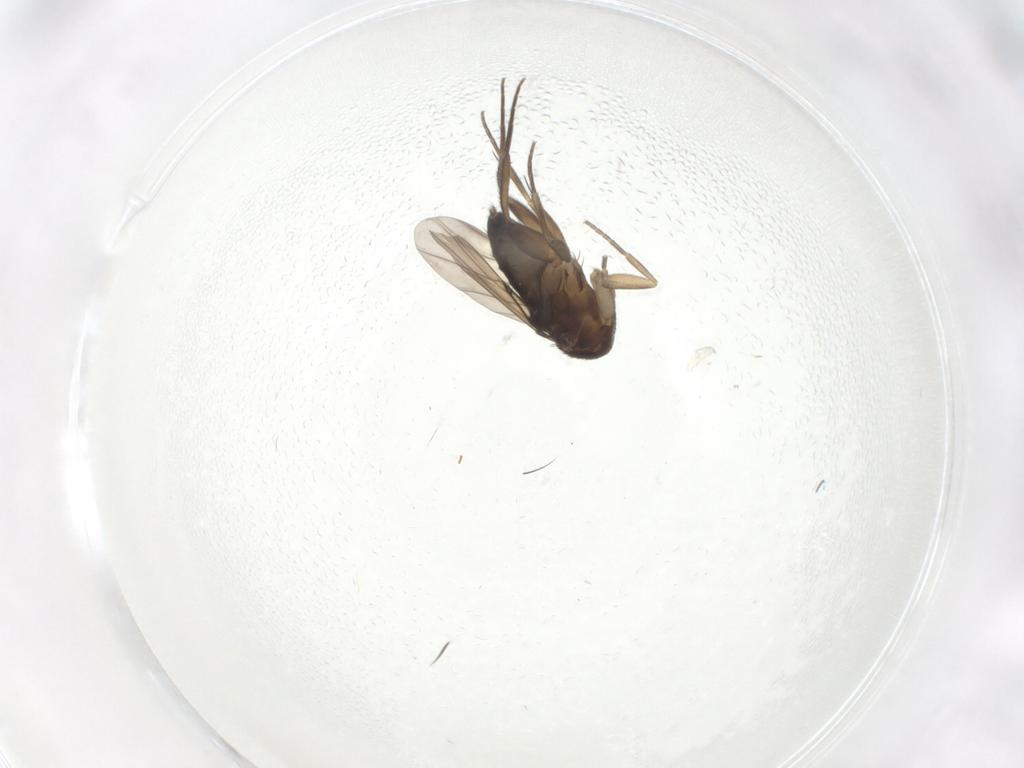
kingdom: Animalia
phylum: Arthropoda
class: Insecta
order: Diptera
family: Phoridae
